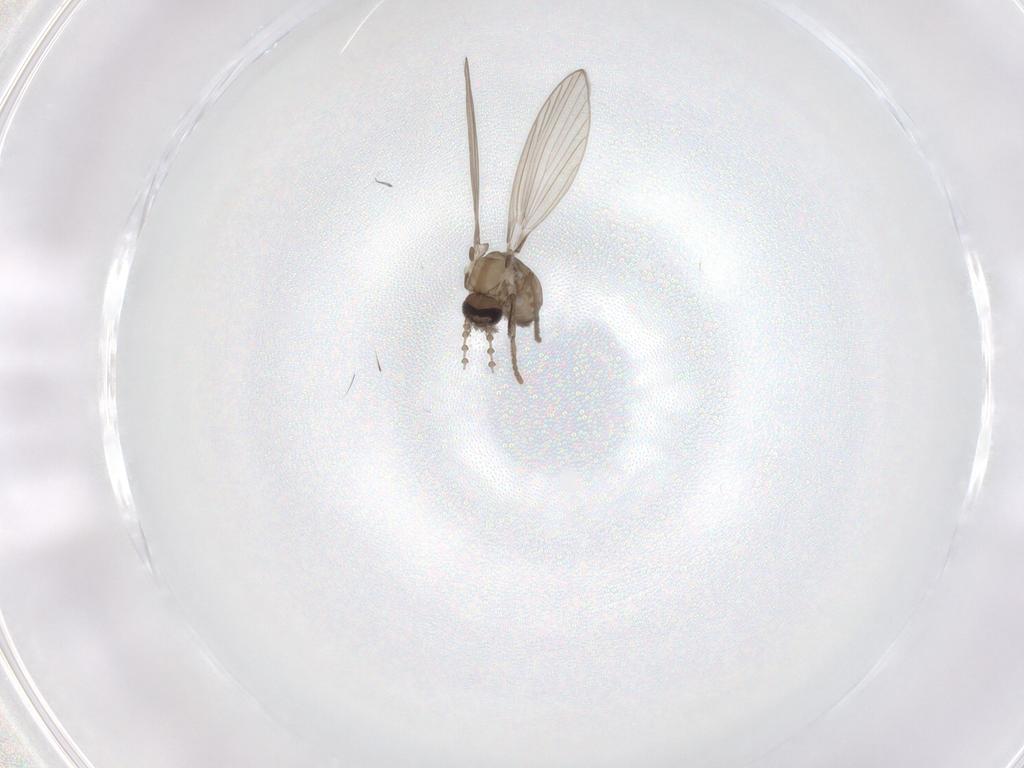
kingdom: Animalia
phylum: Arthropoda
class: Insecta
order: Diptera
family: Psychodidae
